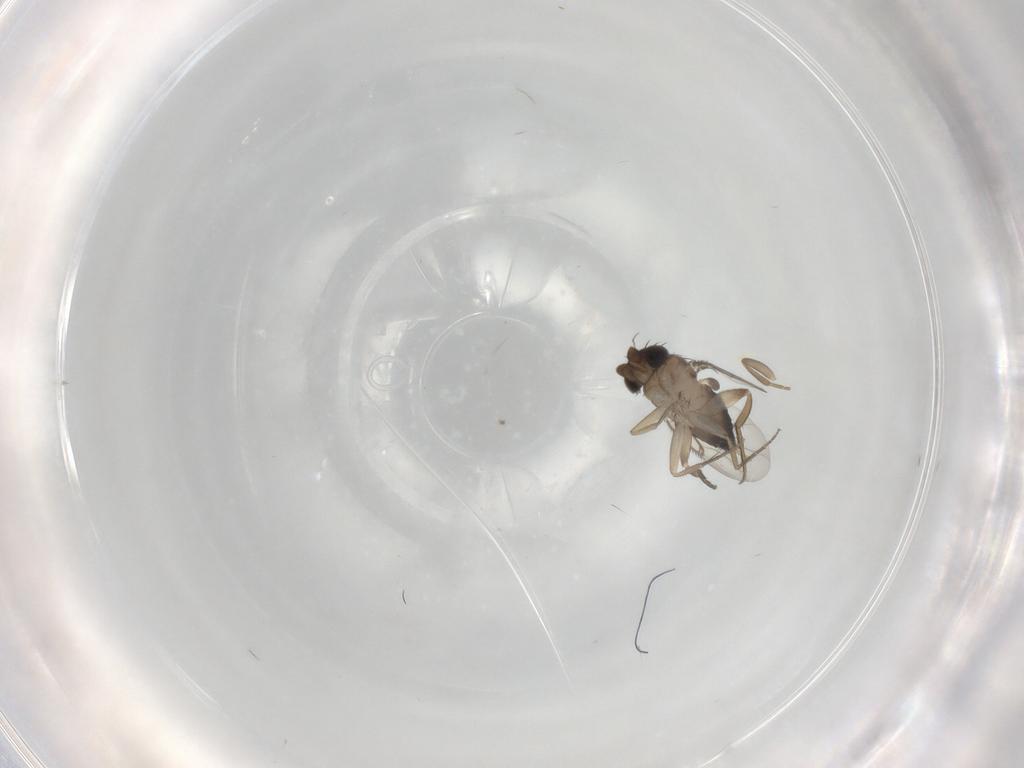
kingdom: Animalia
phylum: Arthropoda
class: Insecta
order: Diptera
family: Phoridae
